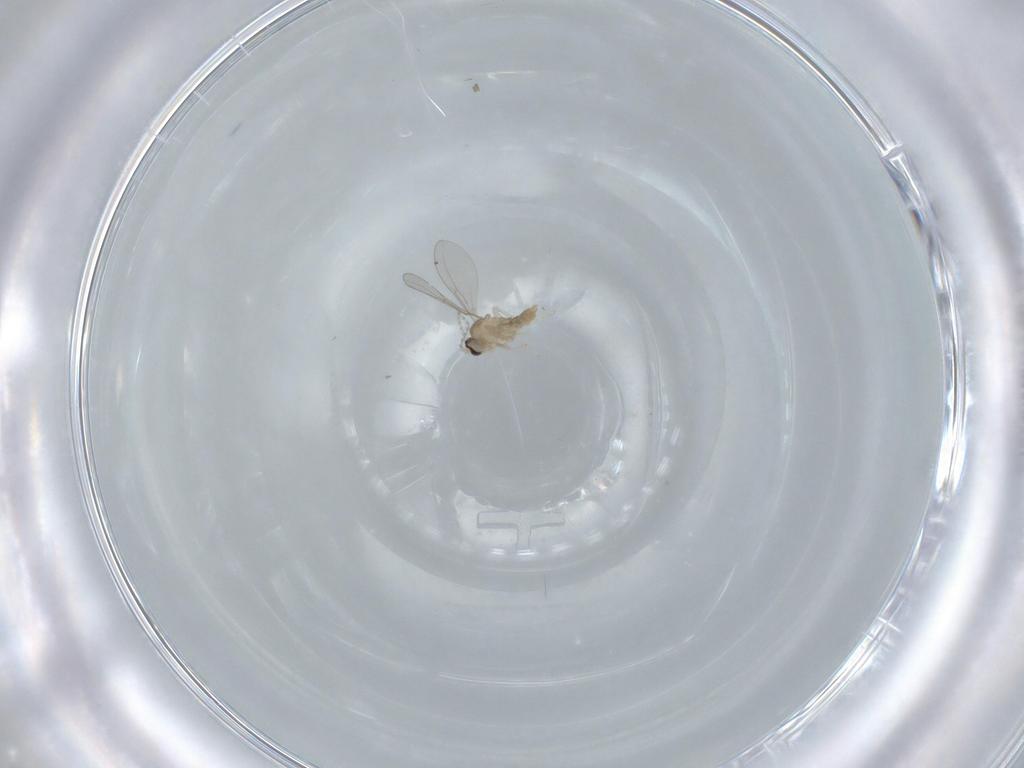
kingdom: Animalia
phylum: Arthropoda
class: Insecta
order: Diptera
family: Cecidomyiidae
